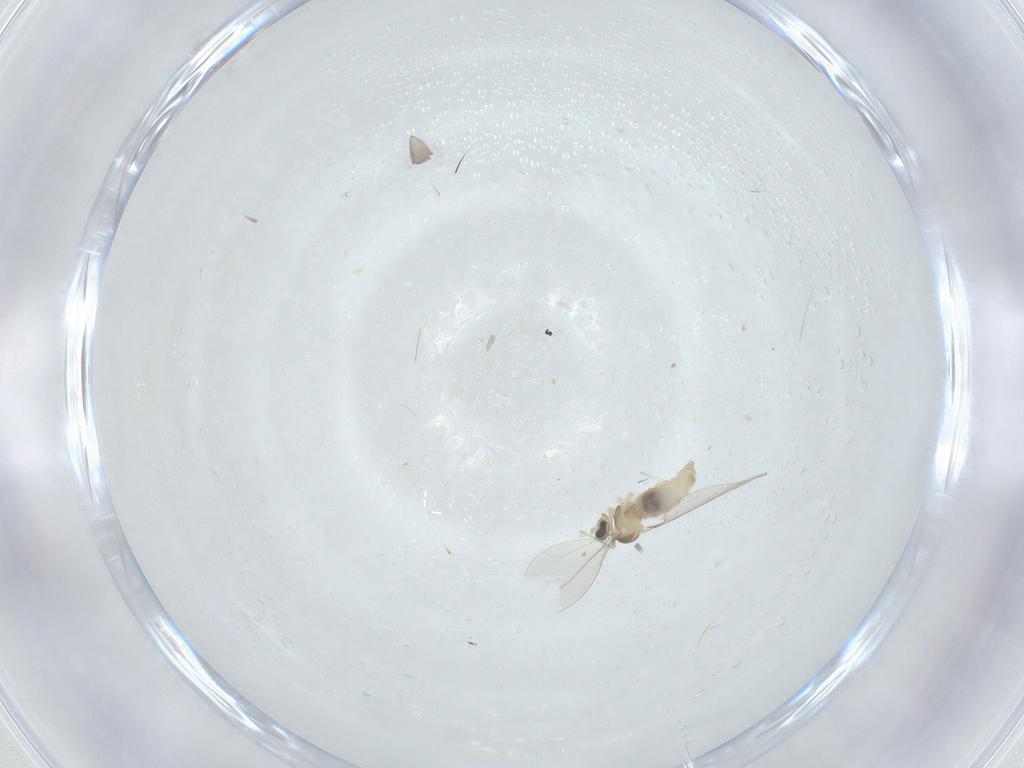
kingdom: Animalia
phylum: Arthropoda
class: Insecta
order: Diptera
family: Cecidomyiidae
